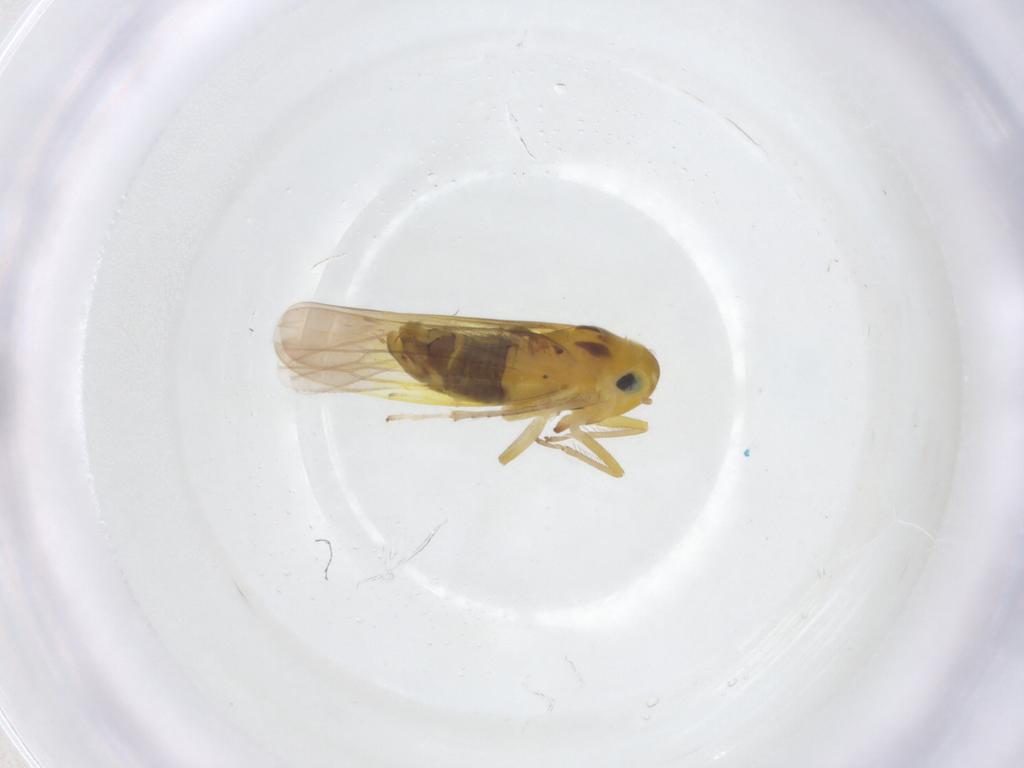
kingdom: Animalia
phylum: Arthropoda
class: Insecta
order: Hemiptera
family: Cicadellidae
